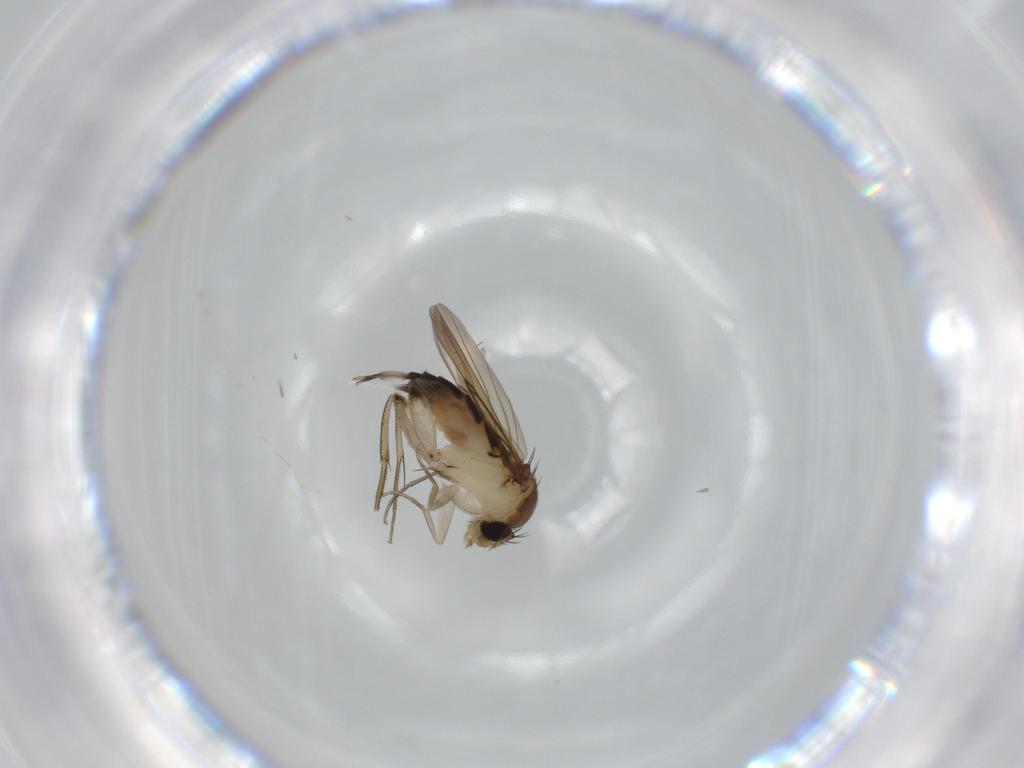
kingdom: Animalia
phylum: Arthropoda
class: Insecta
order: Diptera
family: Phoridae
